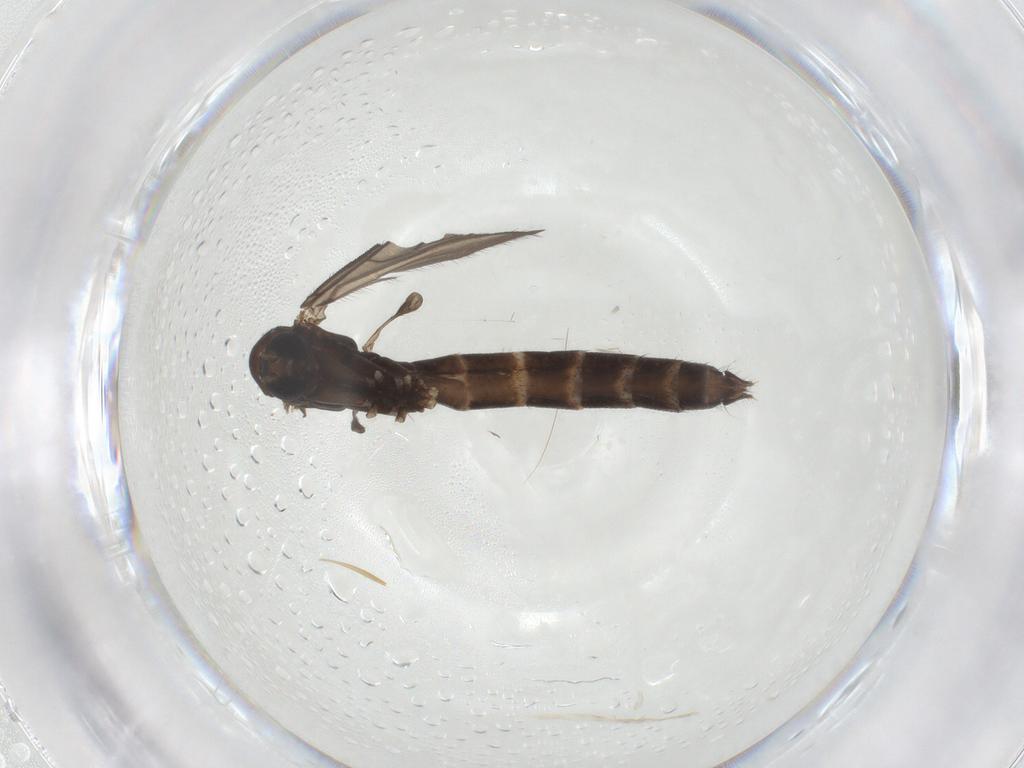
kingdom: Animalia
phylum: Arthropoda
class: Insecta
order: Diptera
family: Ditomyiidae
